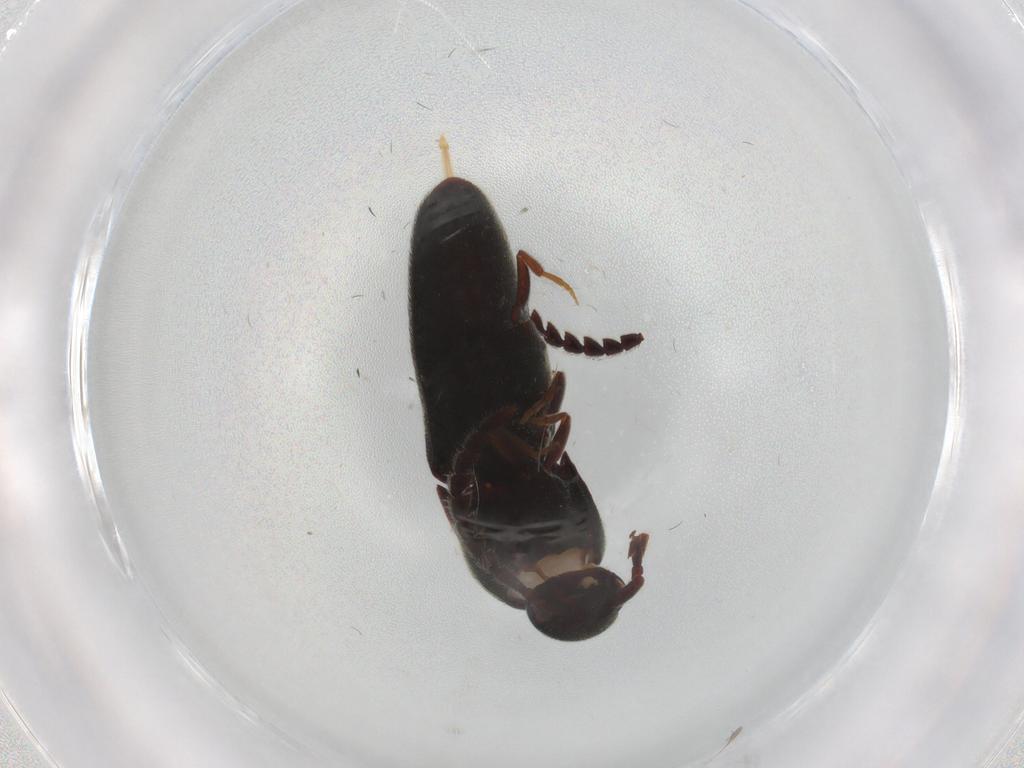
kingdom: Animalia
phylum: Arthropoda
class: Insecta
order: Coleoptera
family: Eucnemidae
